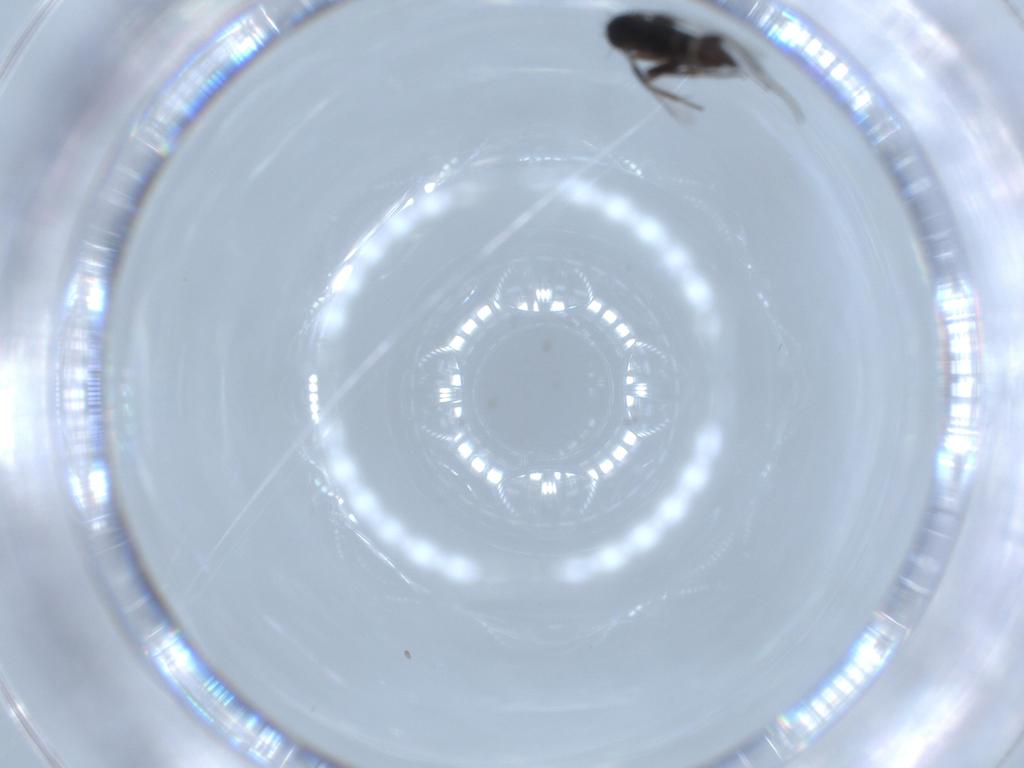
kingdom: Animalia
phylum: Arthropoda
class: Insecta
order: Diptera
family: Phoridae
